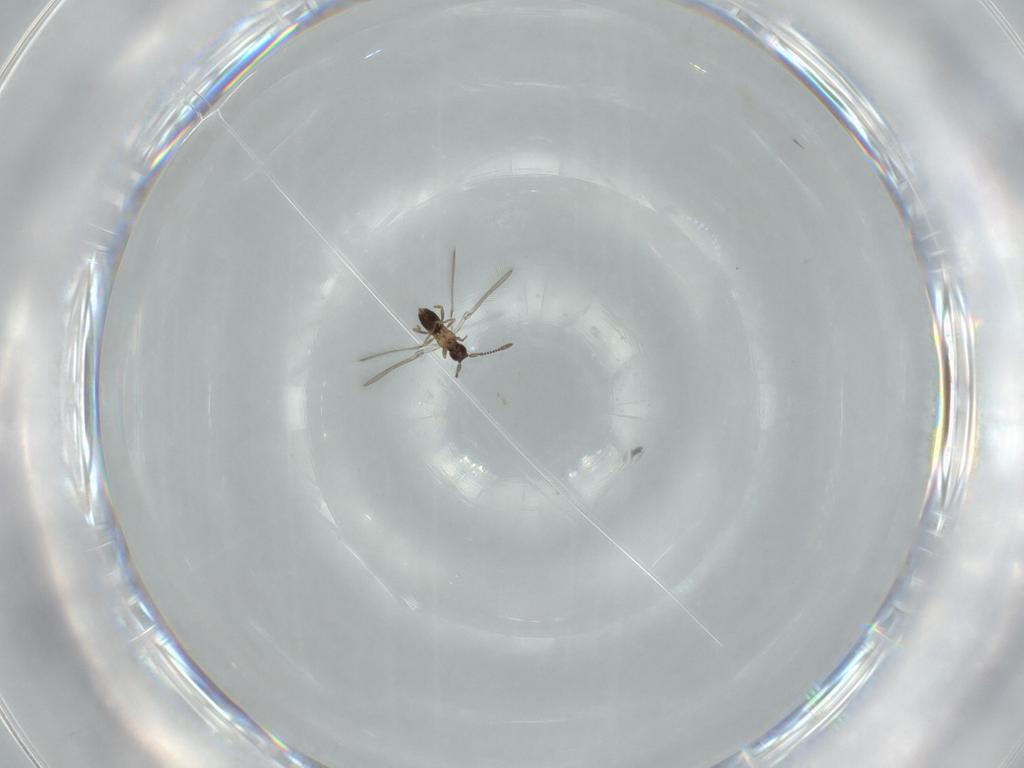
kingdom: Animalia
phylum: Arthropoda
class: Insecta
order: Hymenoptera
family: Mymaridae
